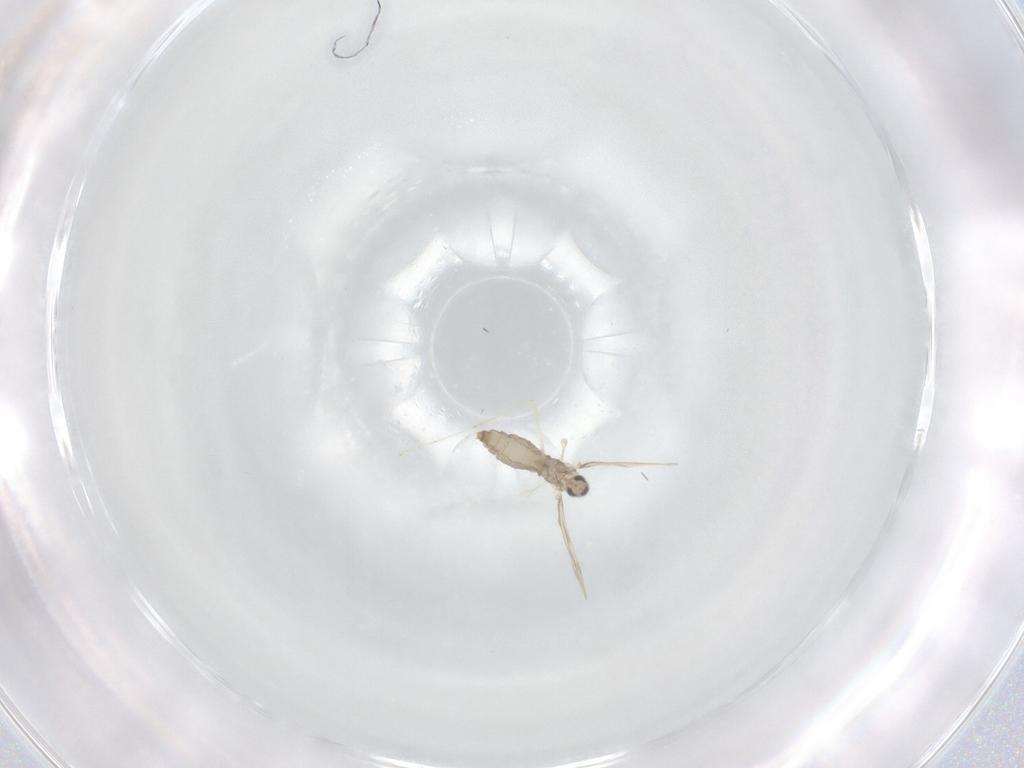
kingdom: Animalia
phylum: Arthropoda
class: Insecta
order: Diptera
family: Cecidomyiidae
